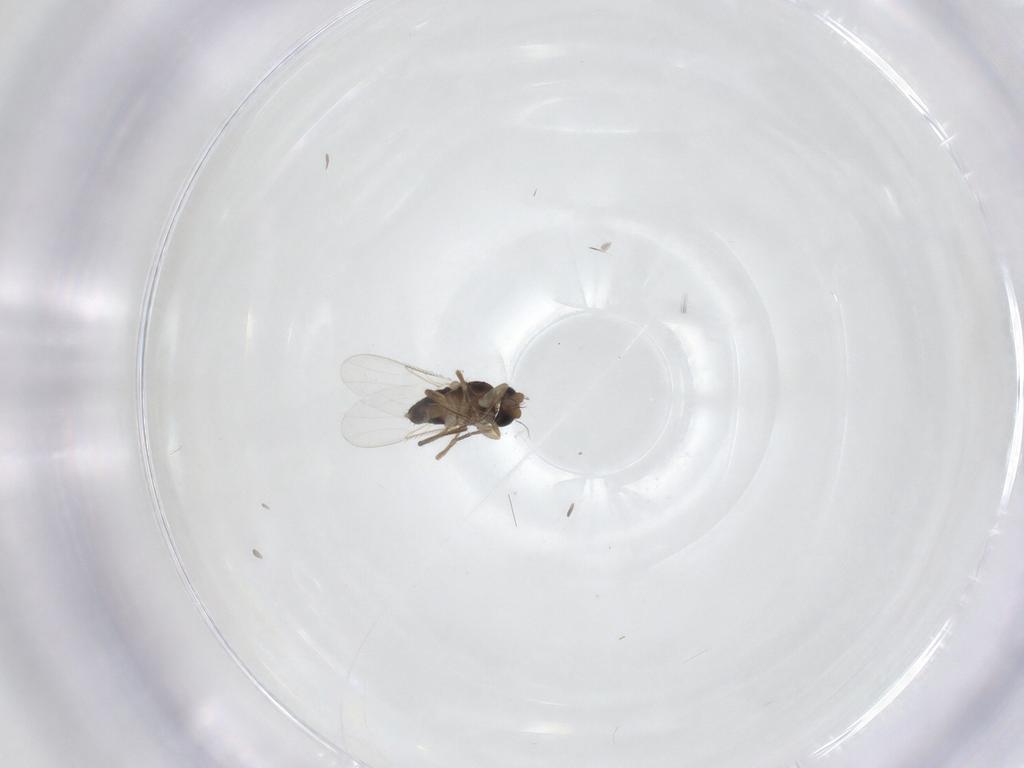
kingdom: Animalia
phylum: Arthropoda
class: Insecta
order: Diptera
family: Phoridae
